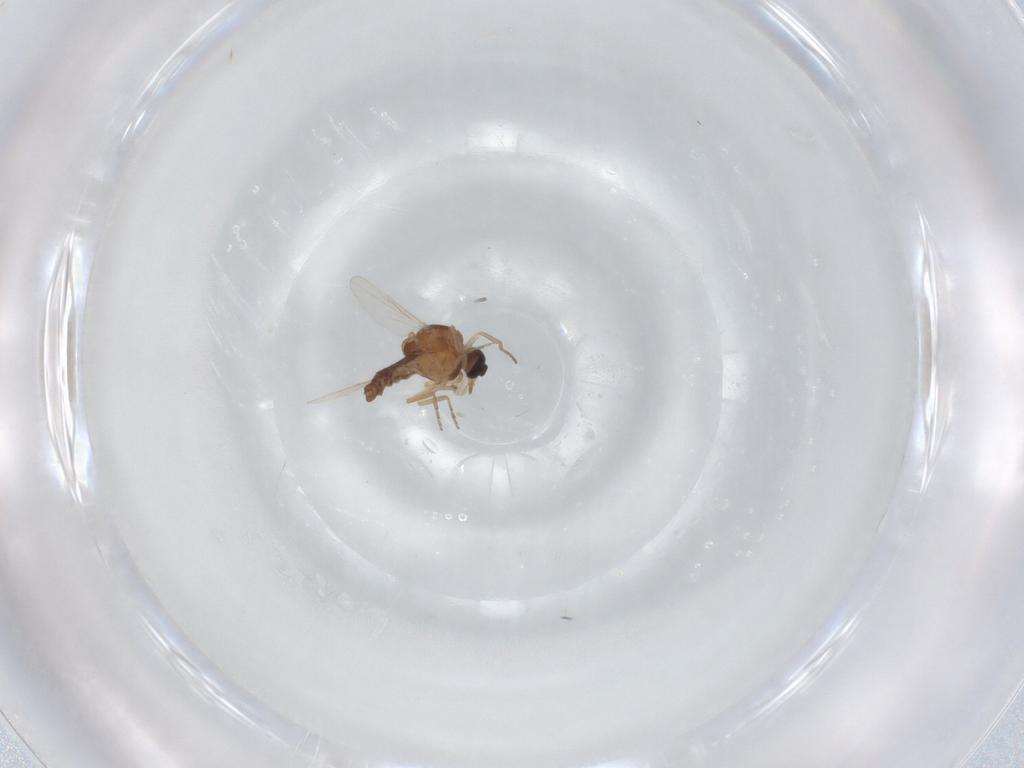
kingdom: Animalia
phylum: Arthropoda
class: Insecta
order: Diptera
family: Ceratopogonidae
